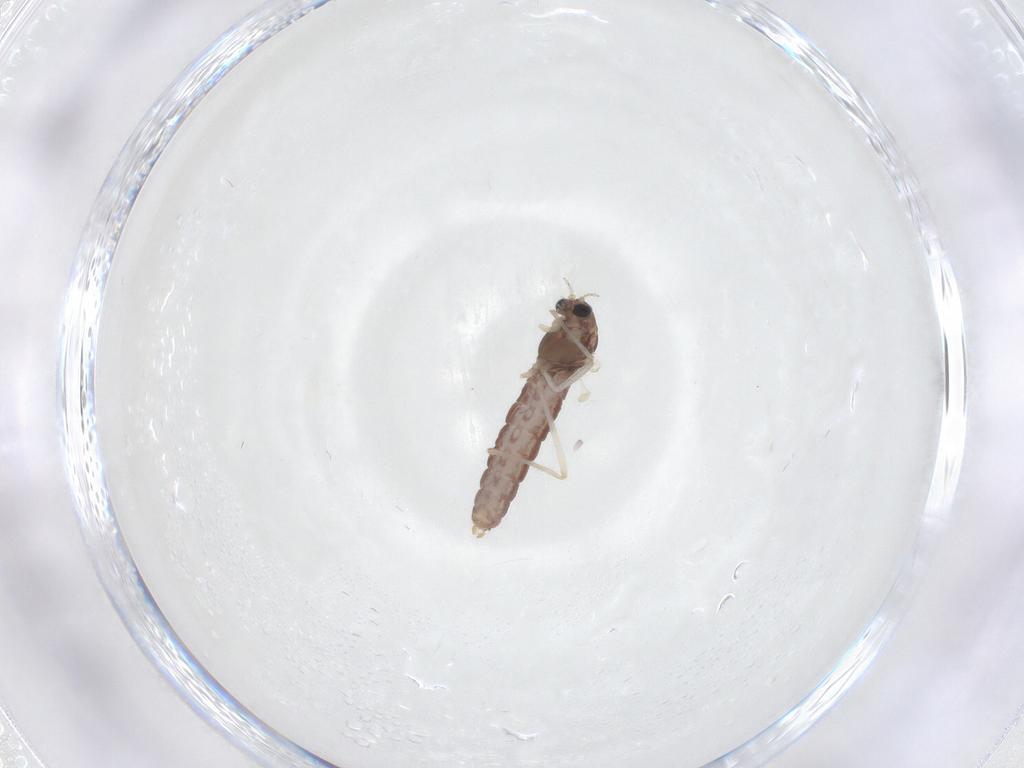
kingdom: Animalia
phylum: Arthropoda
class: Insecta
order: Diptera
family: Chironomidae
